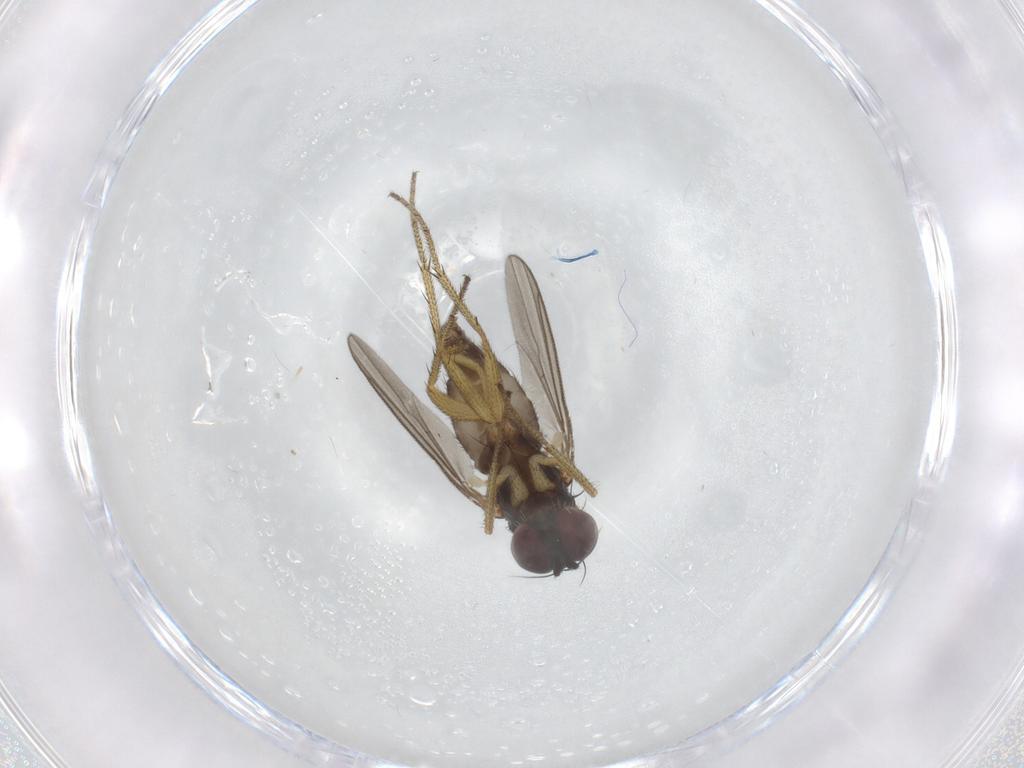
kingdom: Animalia
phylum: Arthropoda
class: Insecta
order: Diptera
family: Dolichopodidae
